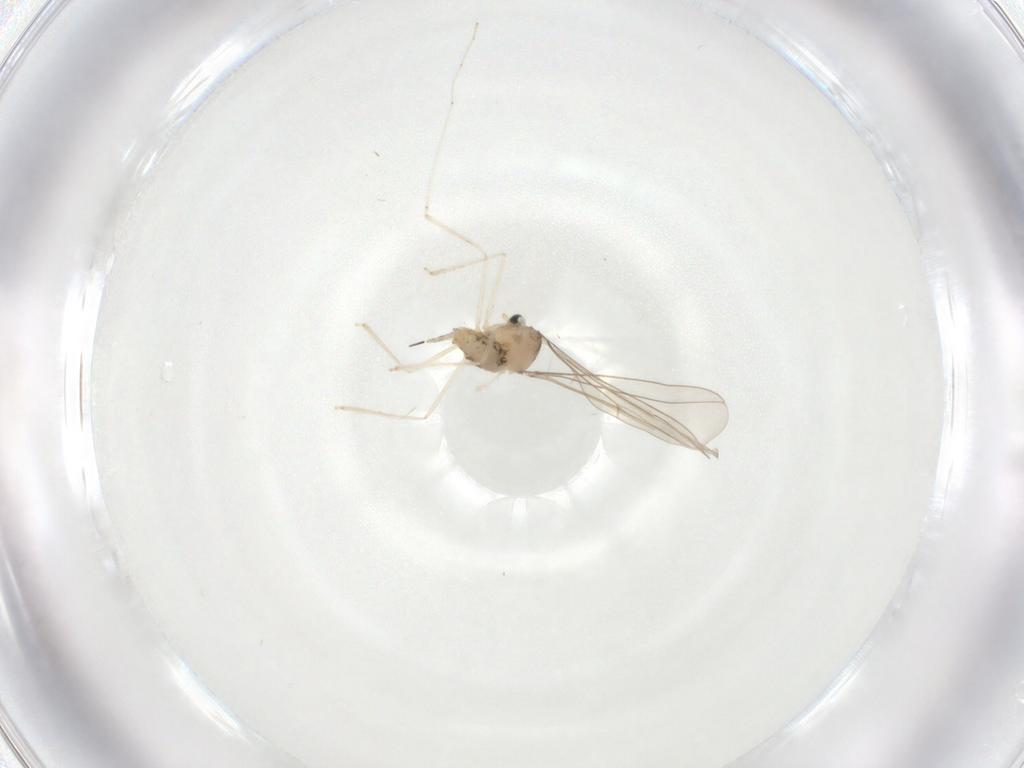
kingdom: Animalia
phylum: Arthropoda
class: Insecta
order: Diptera
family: Cecidomyiidae
